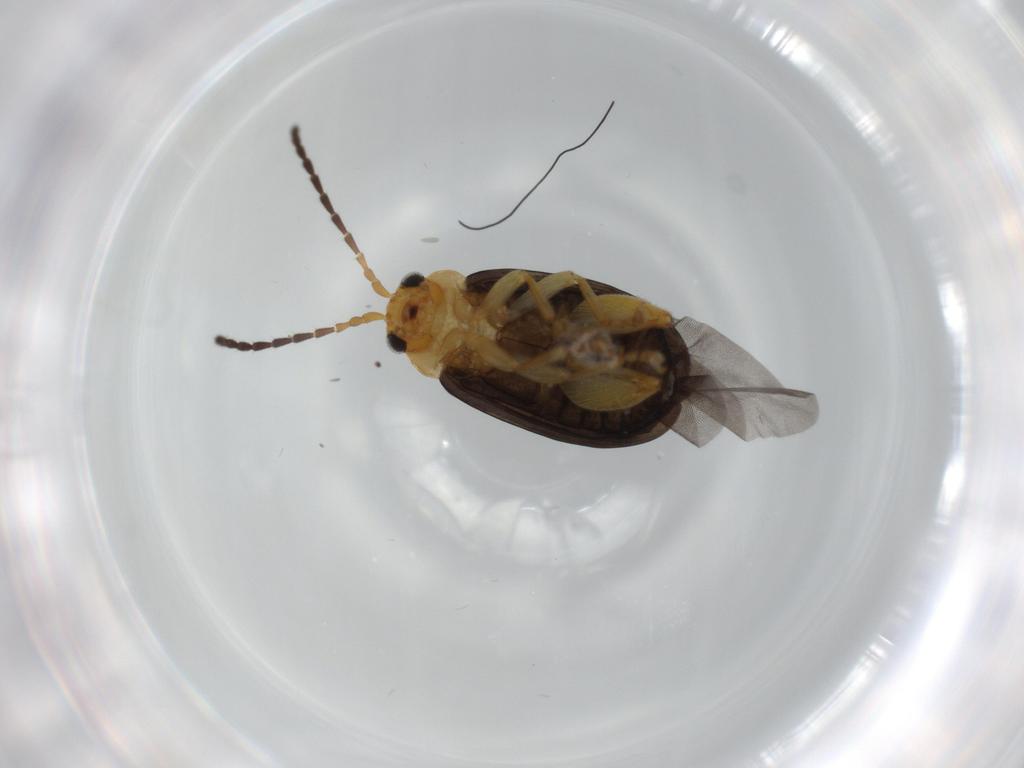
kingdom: Animalia
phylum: Arthropoda
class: Insecta
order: Coleoptera
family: Chrysomelidae
